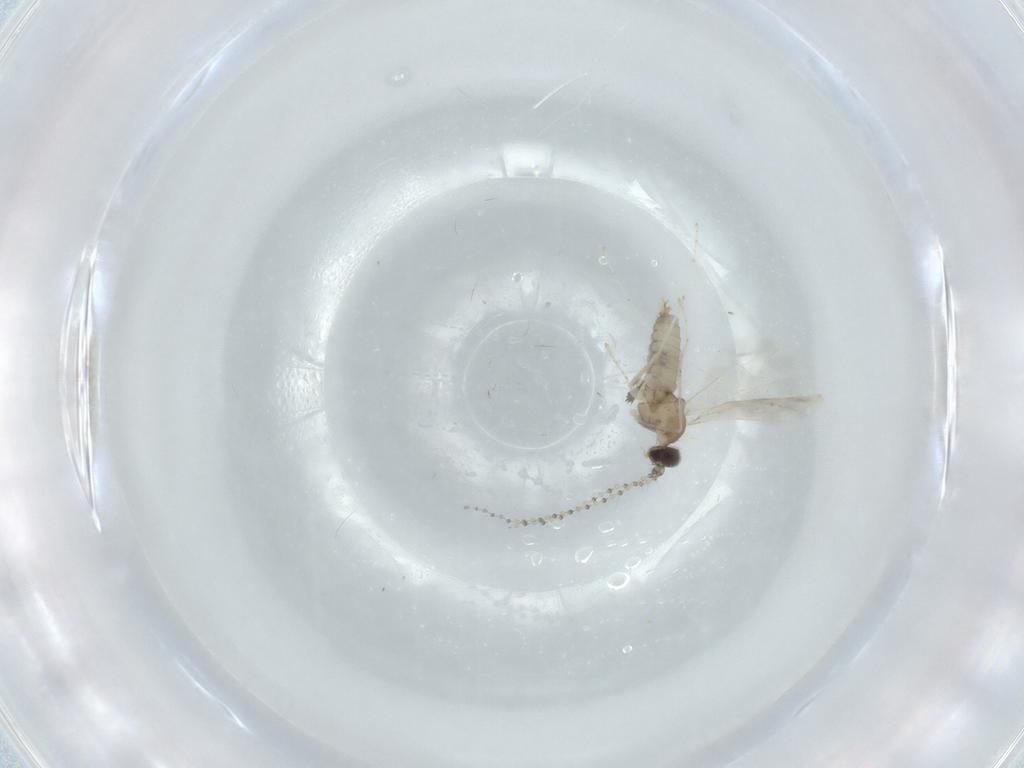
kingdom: Animalia
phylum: Arthropoda
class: Insecta
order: Diptera
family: Cecidomyiidae
